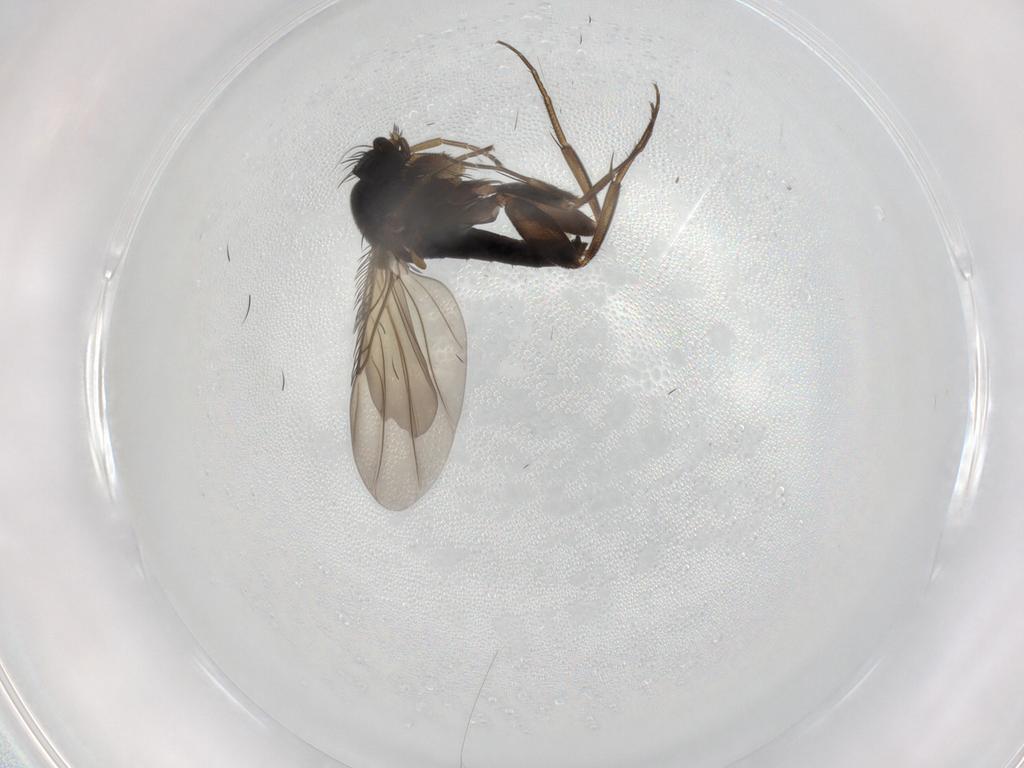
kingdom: Animalia
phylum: Arthropoda
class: Insecta
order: Diptera
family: Phoridae
